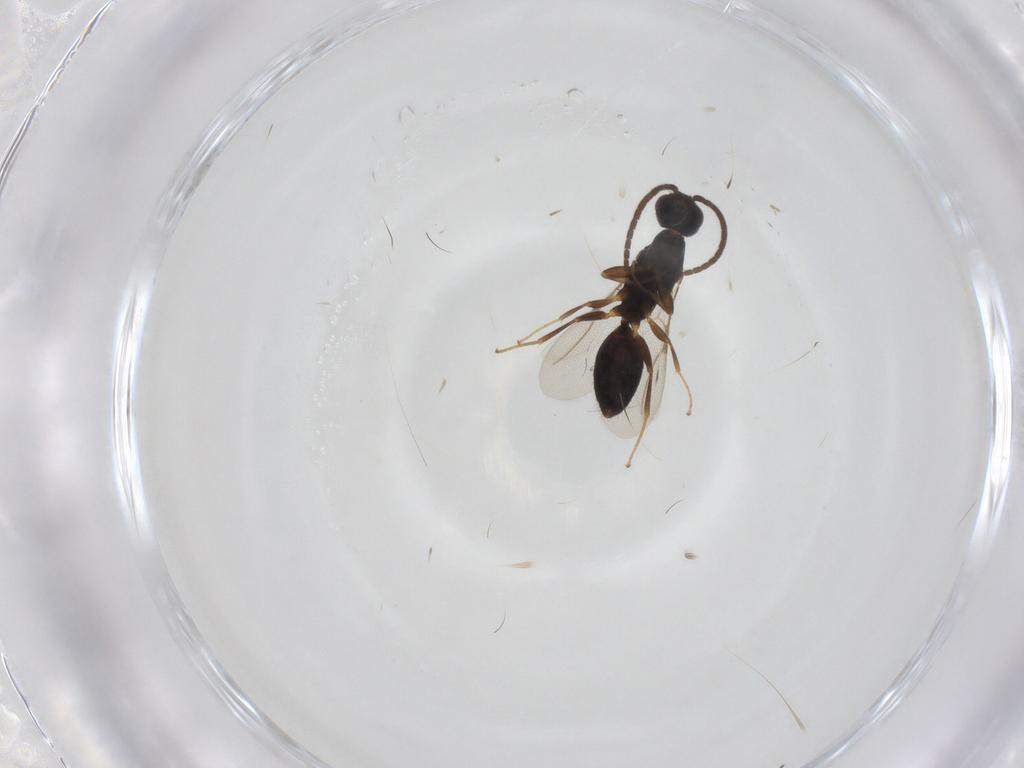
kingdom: Animalia
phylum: Arthropoda
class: Insecta
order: Hymenoptera
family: Bethylidae
